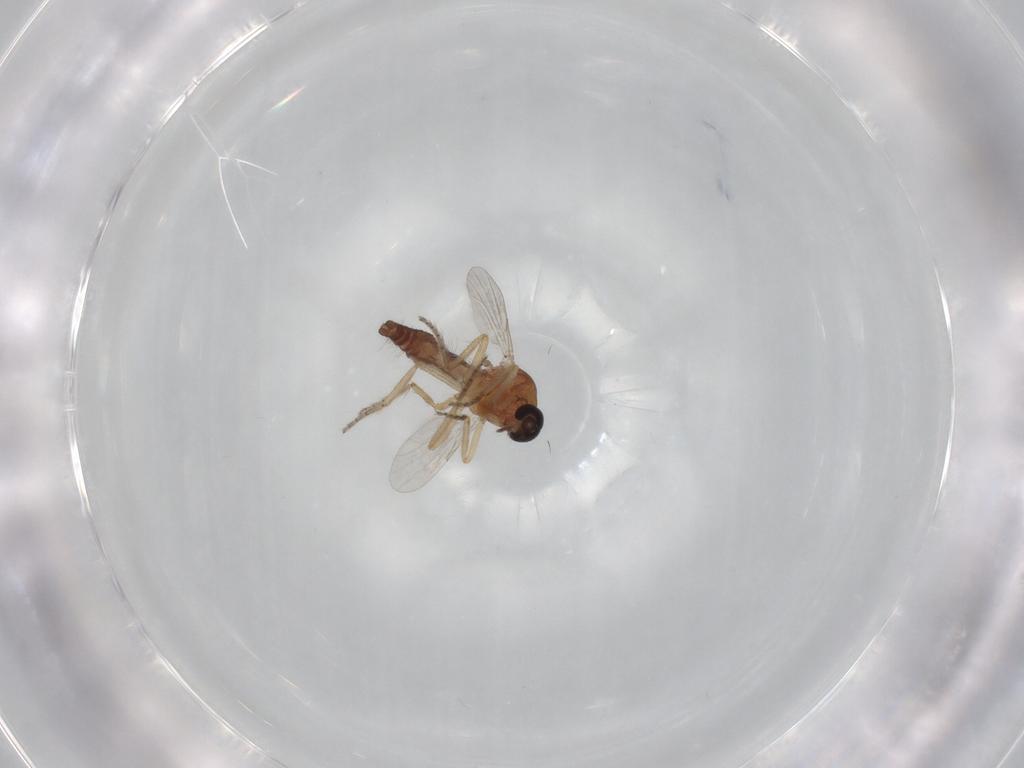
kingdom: Animalia
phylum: Arthropoda
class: Insecta
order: Diptera
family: Ceratopogonidae
